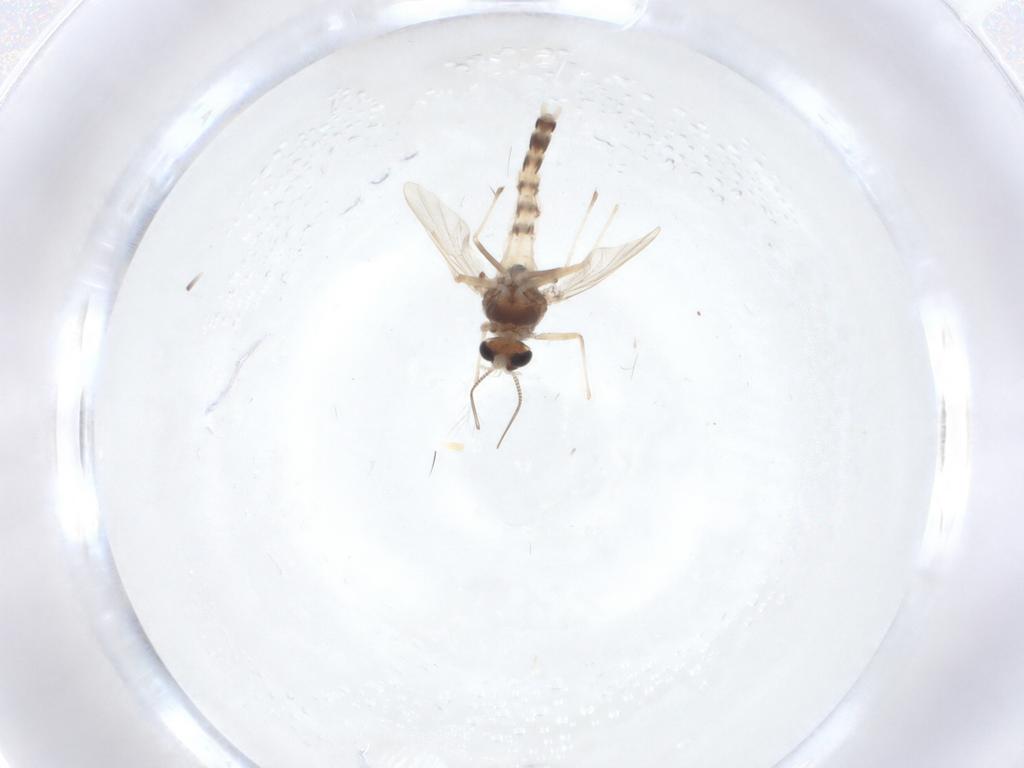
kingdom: Animalia
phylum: Arthropoda
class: Insecta
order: Diptera
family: Chironomidae
